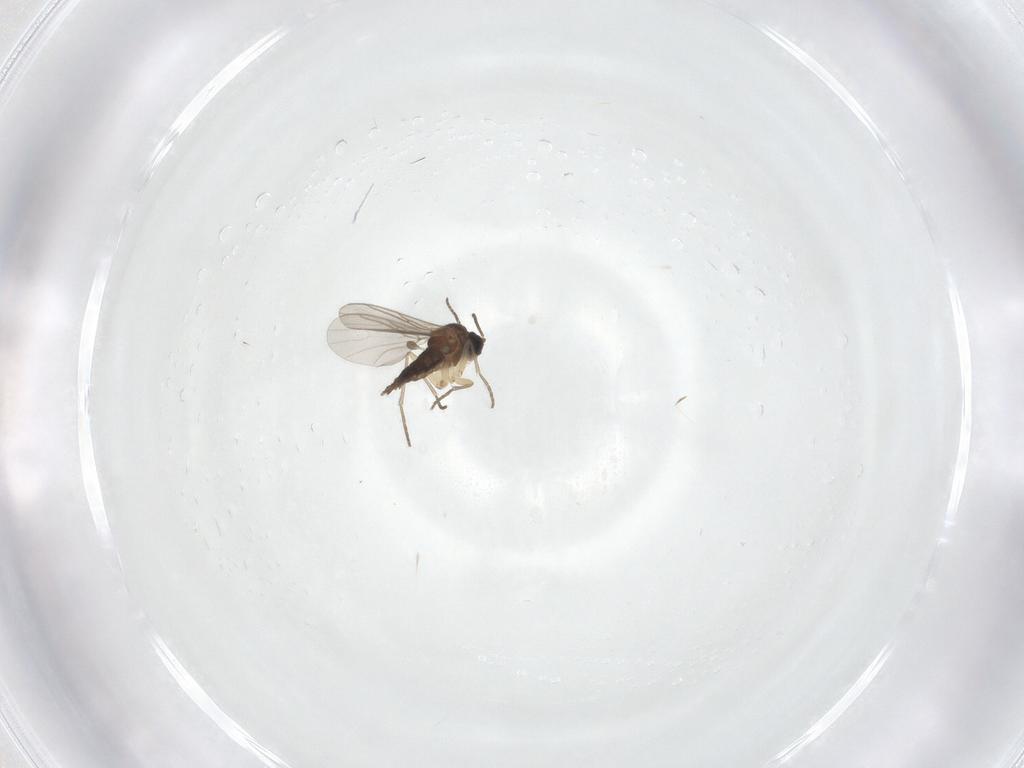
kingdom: Animalia
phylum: Arthropoda
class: Insecta
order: Diptera
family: Sciaridae
